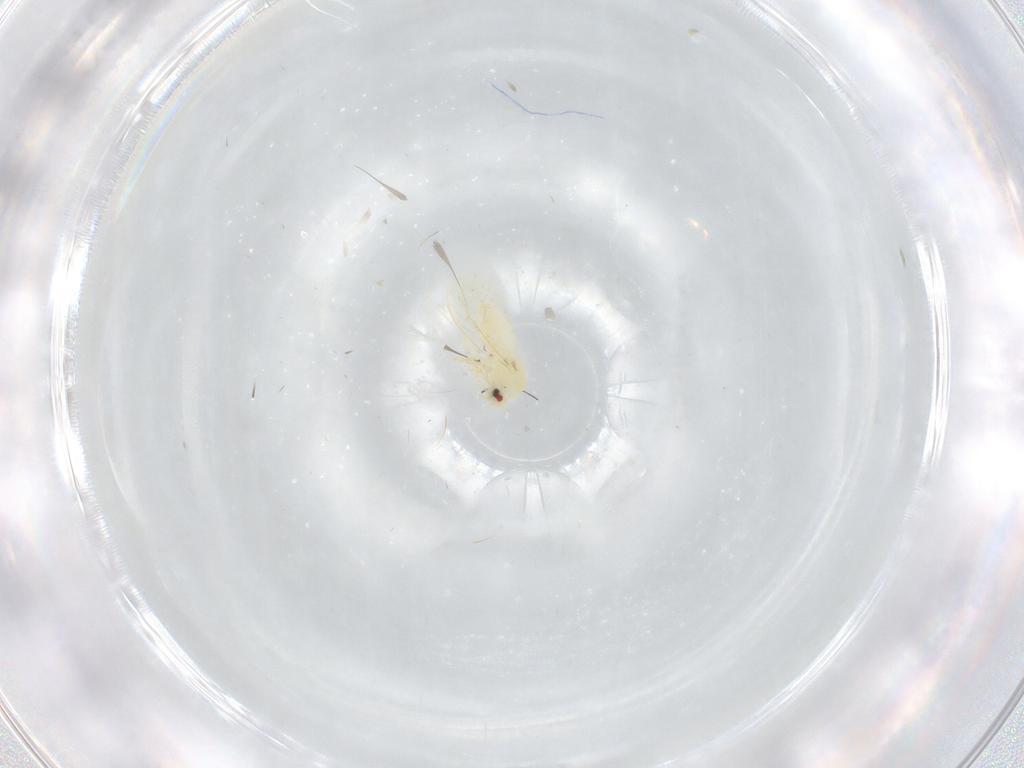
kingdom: Animalia
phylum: Arthropoda
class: Insecta
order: Diptera
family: Cecidomyiidae
